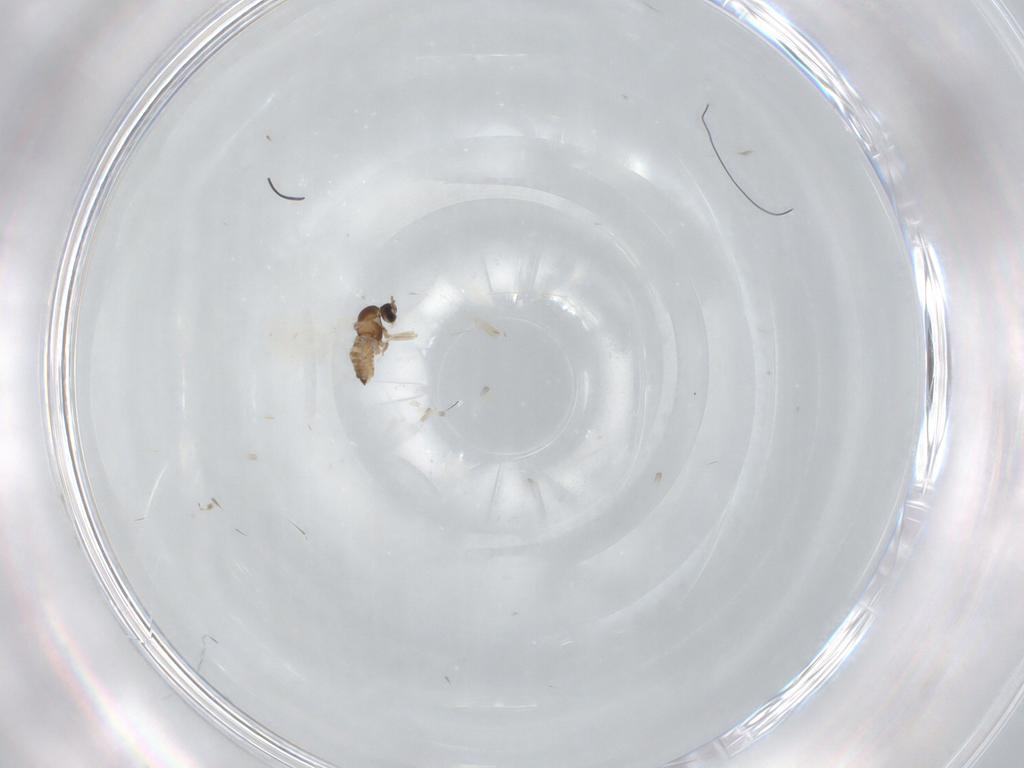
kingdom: Animalia
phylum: Arthropoda
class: Insecta
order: Diptera
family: Cecidomyiidae
